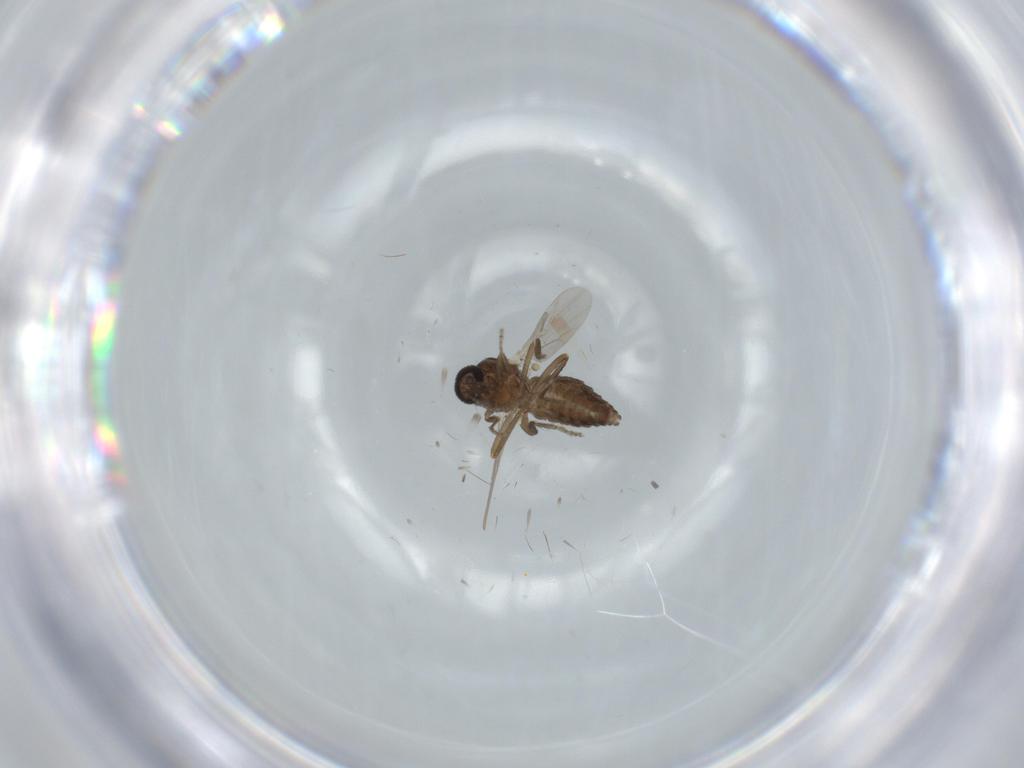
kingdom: Animalia
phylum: Arthropoda
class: Insecta
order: Diptera
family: Ceratopogonidae
